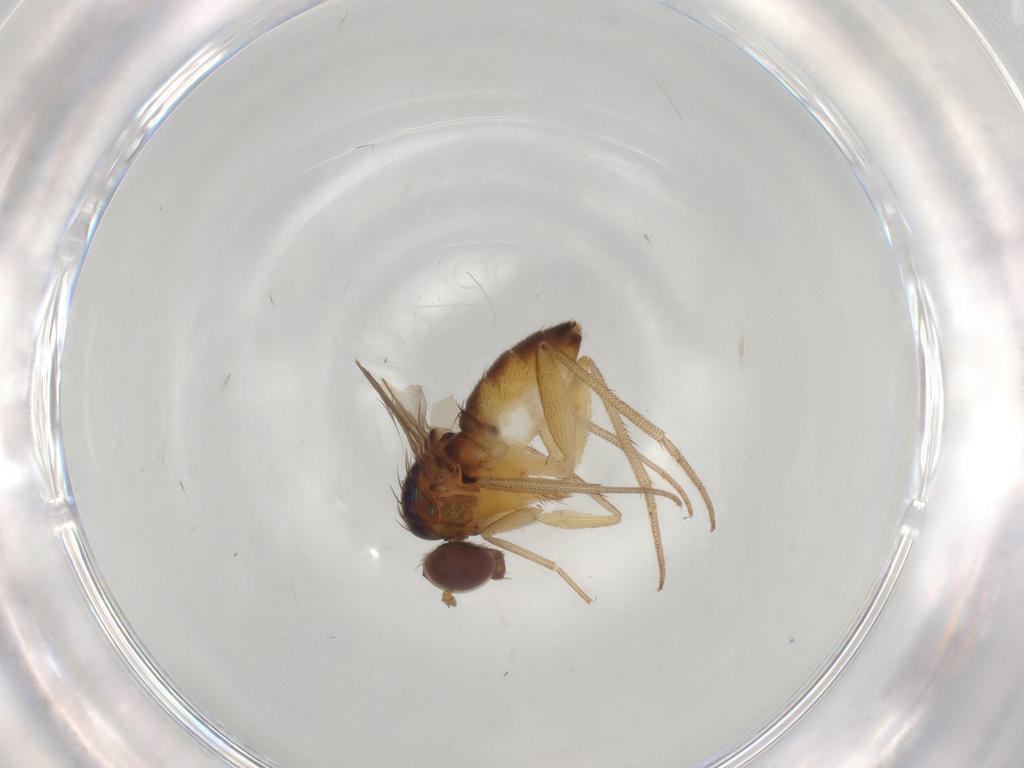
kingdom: Animalia
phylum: Arthropoda
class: Insecta
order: Diptera
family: Dolichopodidae
